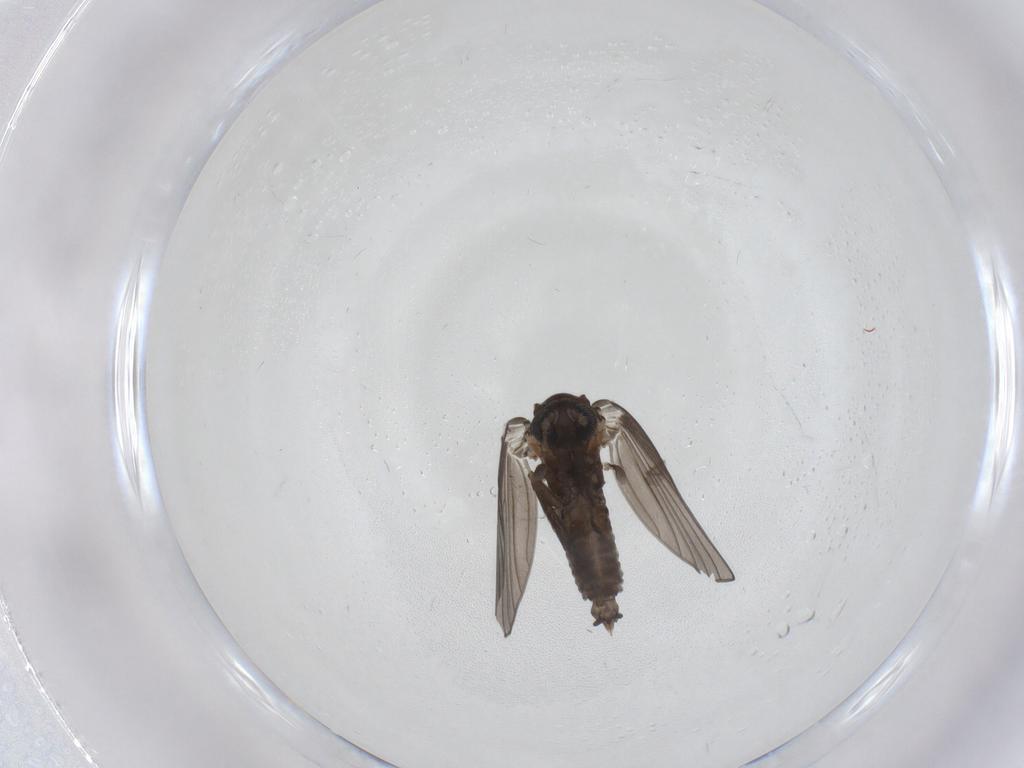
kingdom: Animalia
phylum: Arthropoda
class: Insecta
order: Diptera
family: Psychodidae
